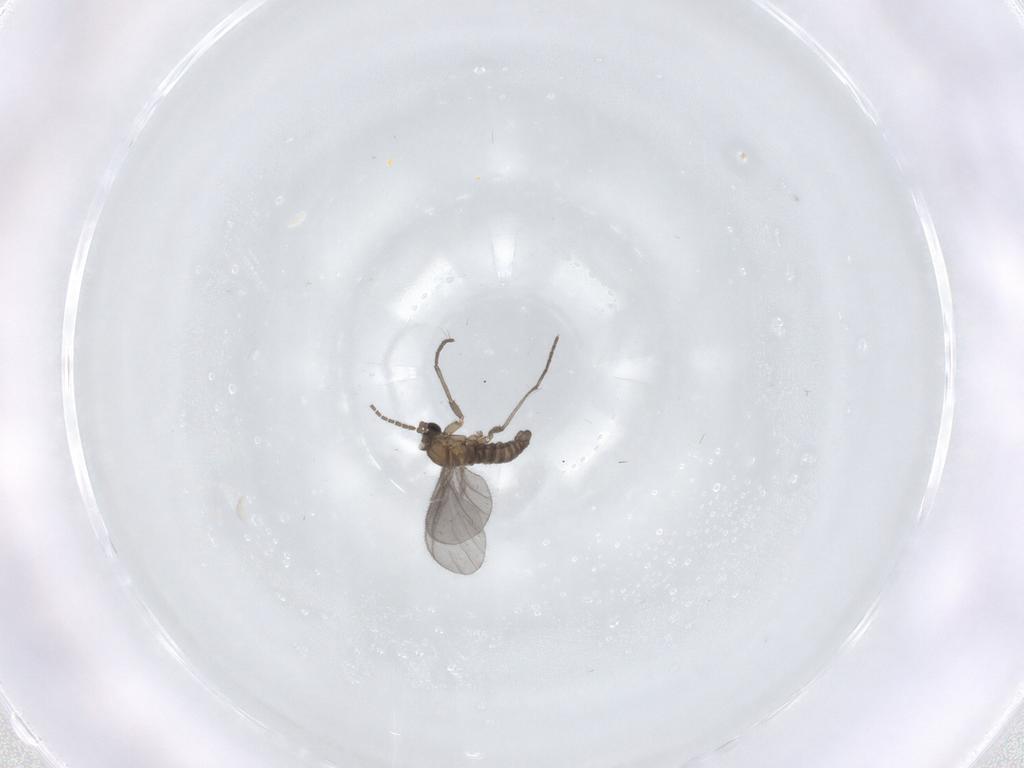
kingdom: Animalia
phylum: Arthropoda
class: Insecta
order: Diptera
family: Sciaridae
